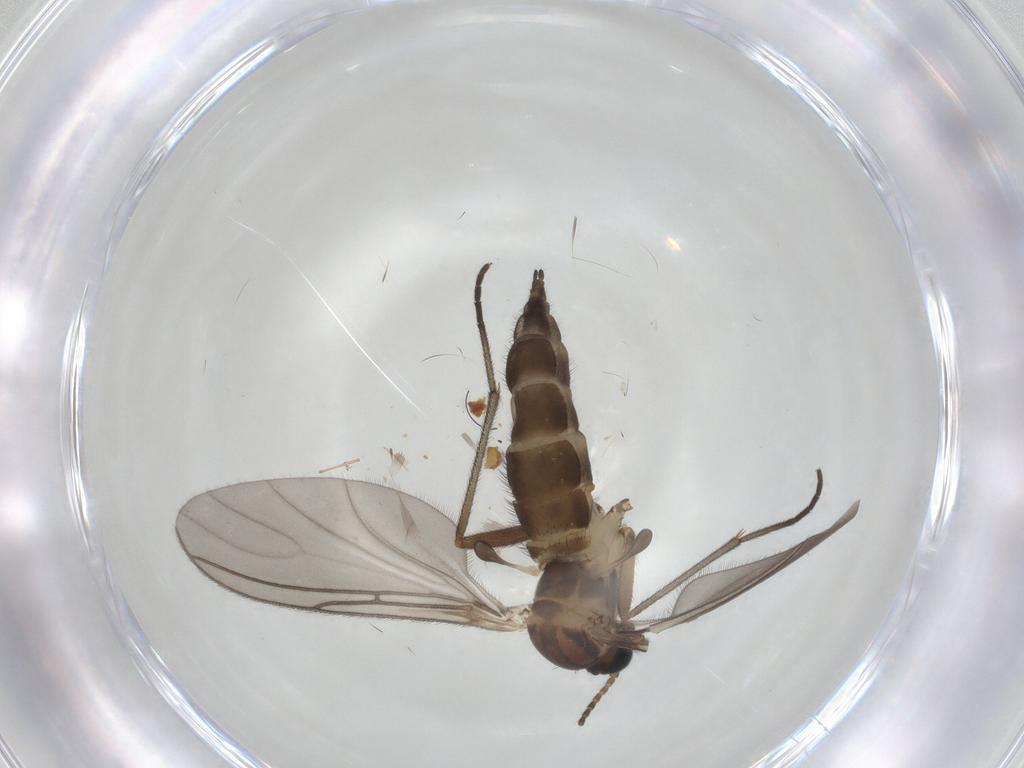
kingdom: Animalia
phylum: Arthropoda
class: Insecta
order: Diptera
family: Sciaridae
